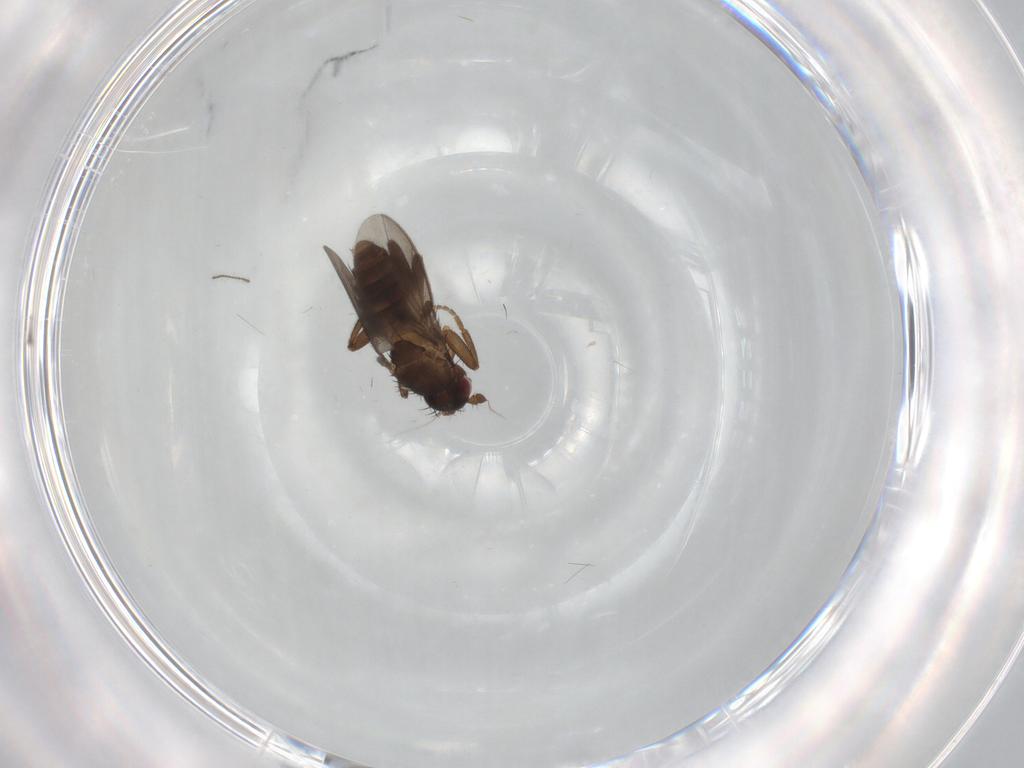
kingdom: Animalia
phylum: Arthropoda
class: Insecta
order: Diptera
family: Sphaeroceridae
